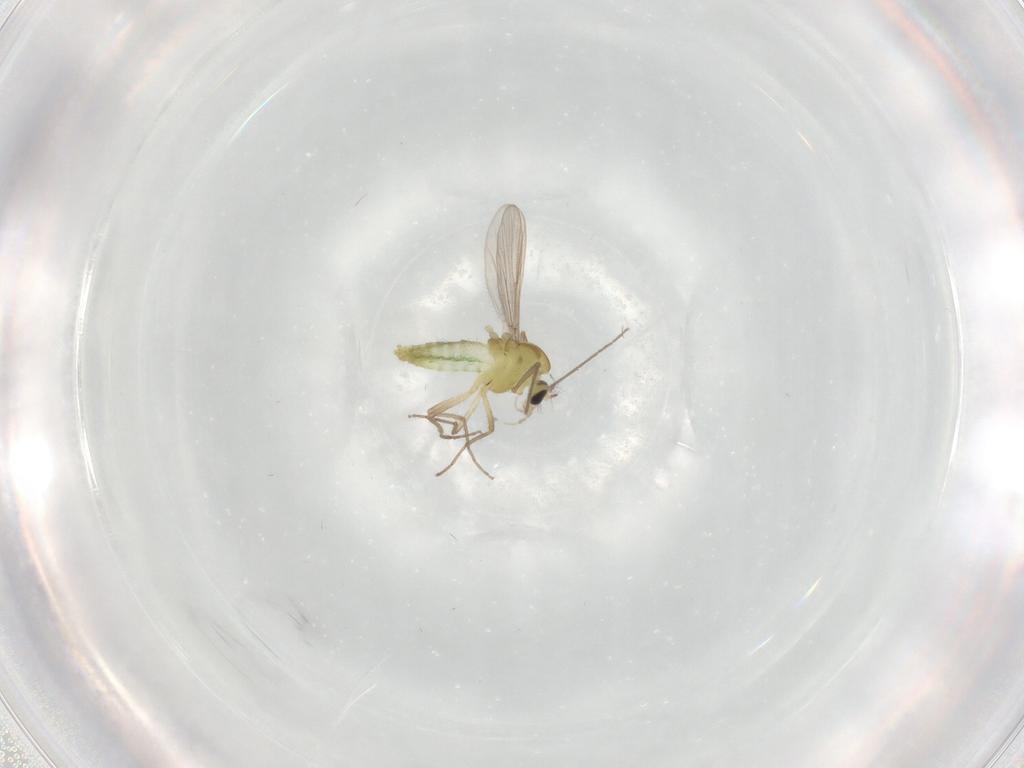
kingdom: Animalia
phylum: Arthropoda
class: Insecta
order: Diptera
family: Chironomidae
